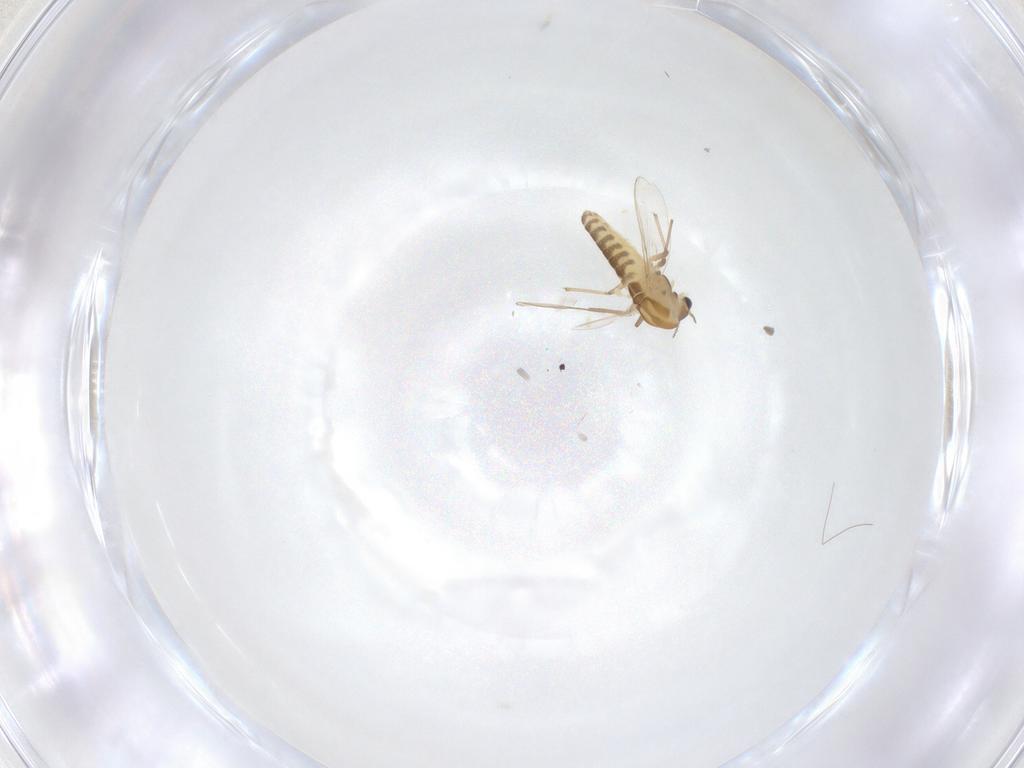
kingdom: Animalia
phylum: Arthropoda
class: Insecta
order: Diptera
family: Chironomidae
